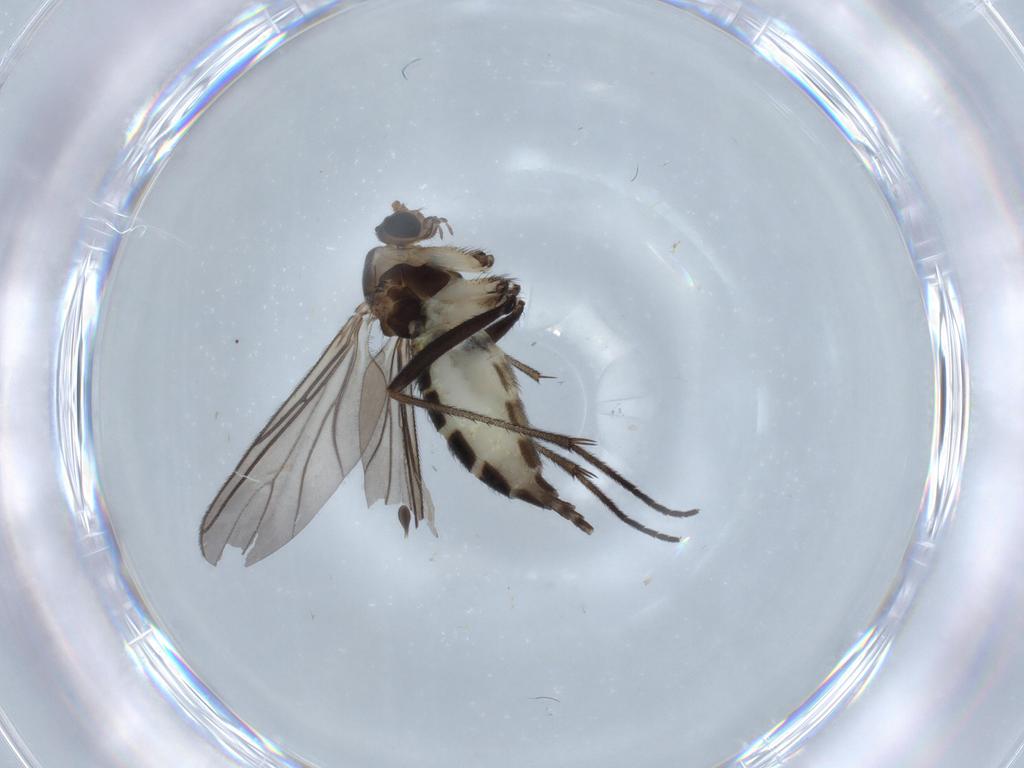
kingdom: Animalia
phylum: Arthropoda
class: Insecta
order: Diptera
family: Sciaridae
